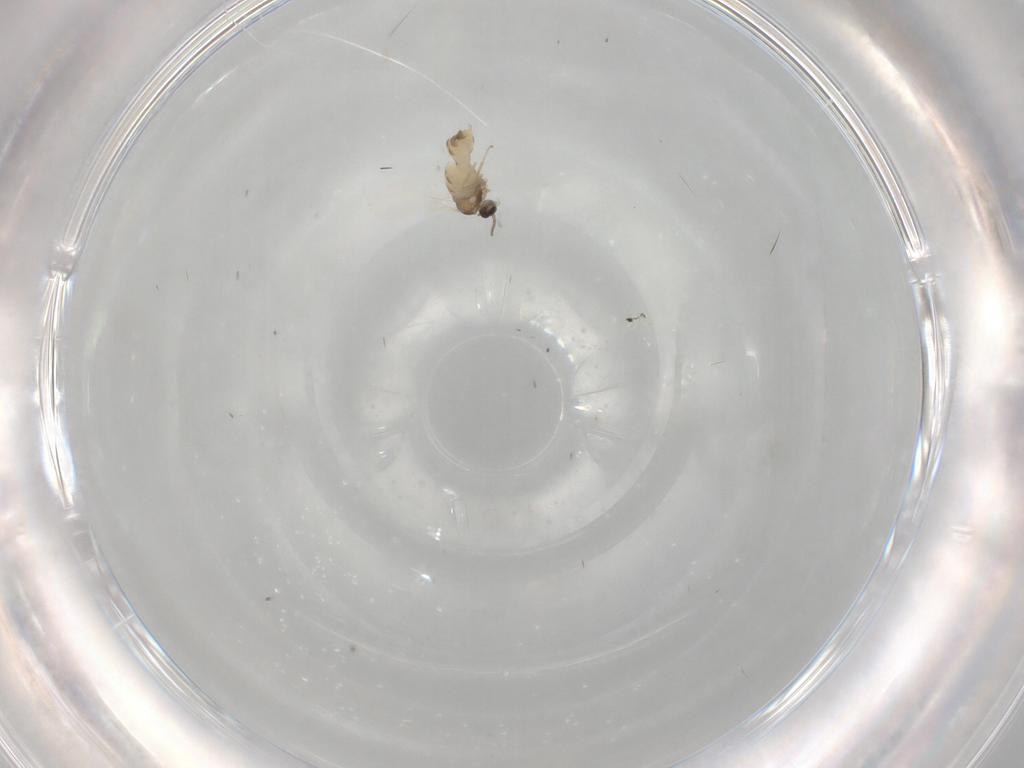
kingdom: Animalia
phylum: Arthropoda
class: Insecta
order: Diptera
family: Cecidomyiidae
